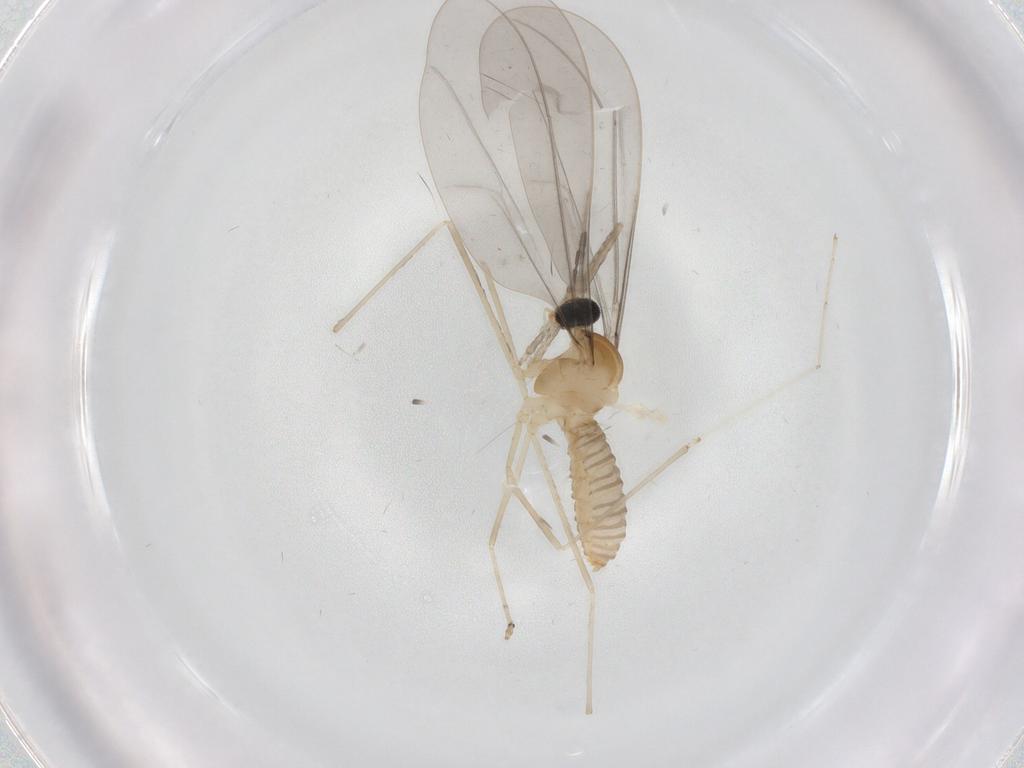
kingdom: Animalia
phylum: Arthropoda
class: Insecta
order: Diptera
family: Cecidomyiidae
